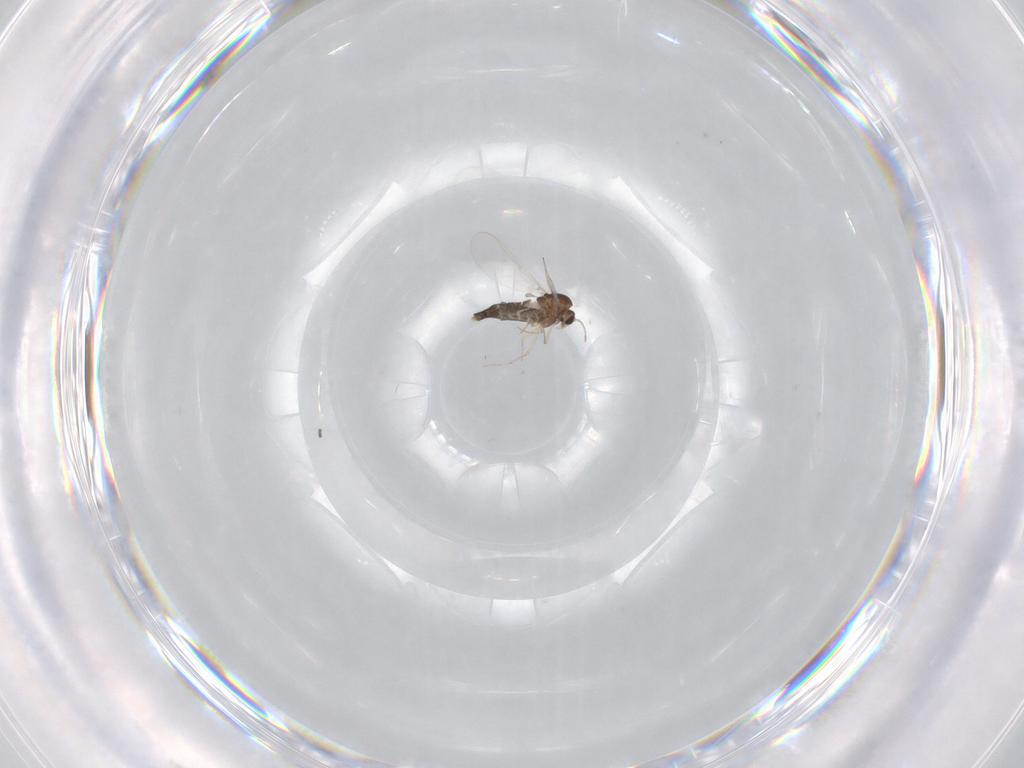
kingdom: Animalia
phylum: Arthropoda
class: Insecta
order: Diptera
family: Chironomidae
